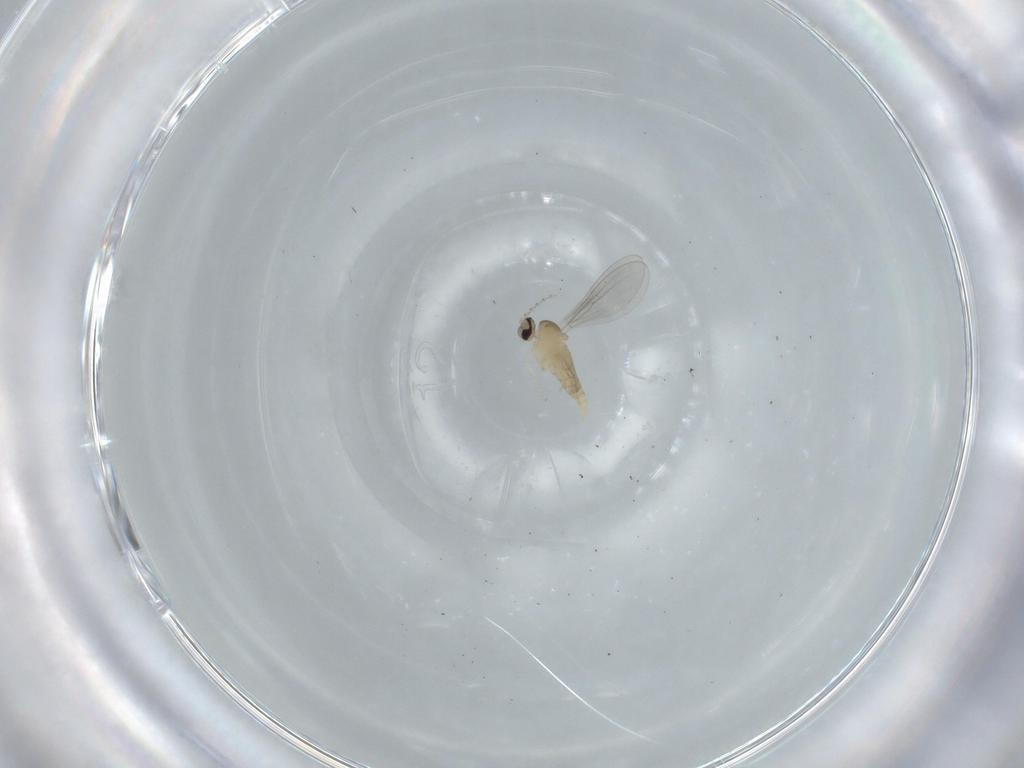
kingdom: Animalia
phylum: Arthropoda
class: Insecta
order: Diptera
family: Cecidomyiidae
